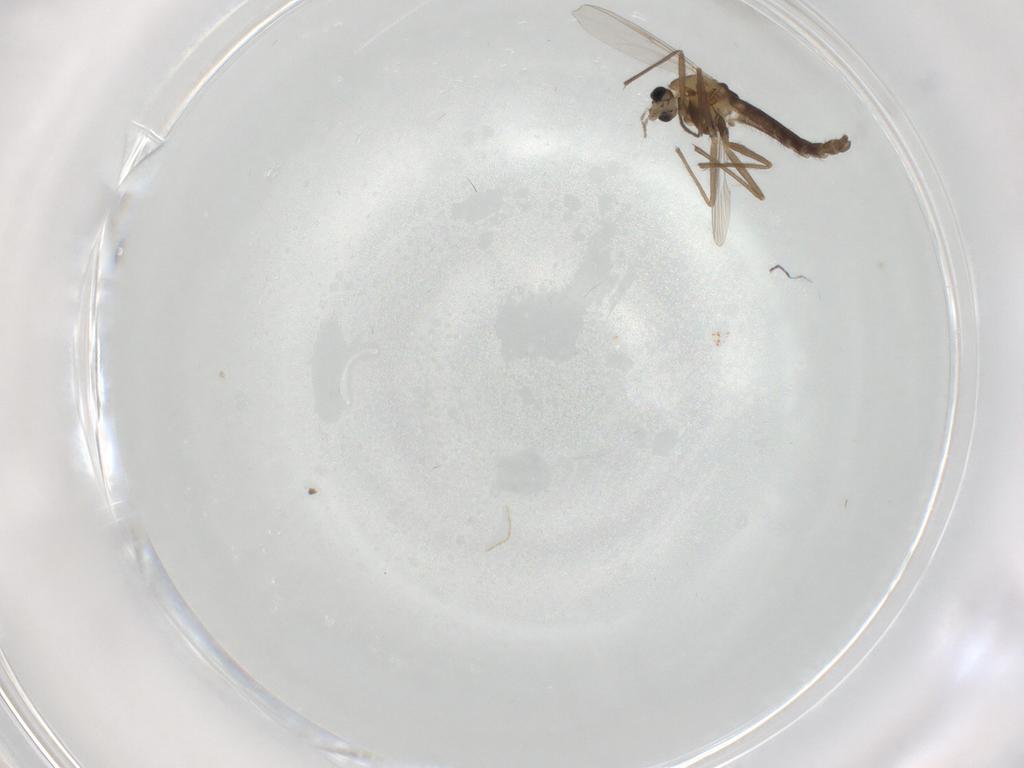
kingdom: Animalia
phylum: Arthropoda
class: Insecta
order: Diptera
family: Chironomidae
